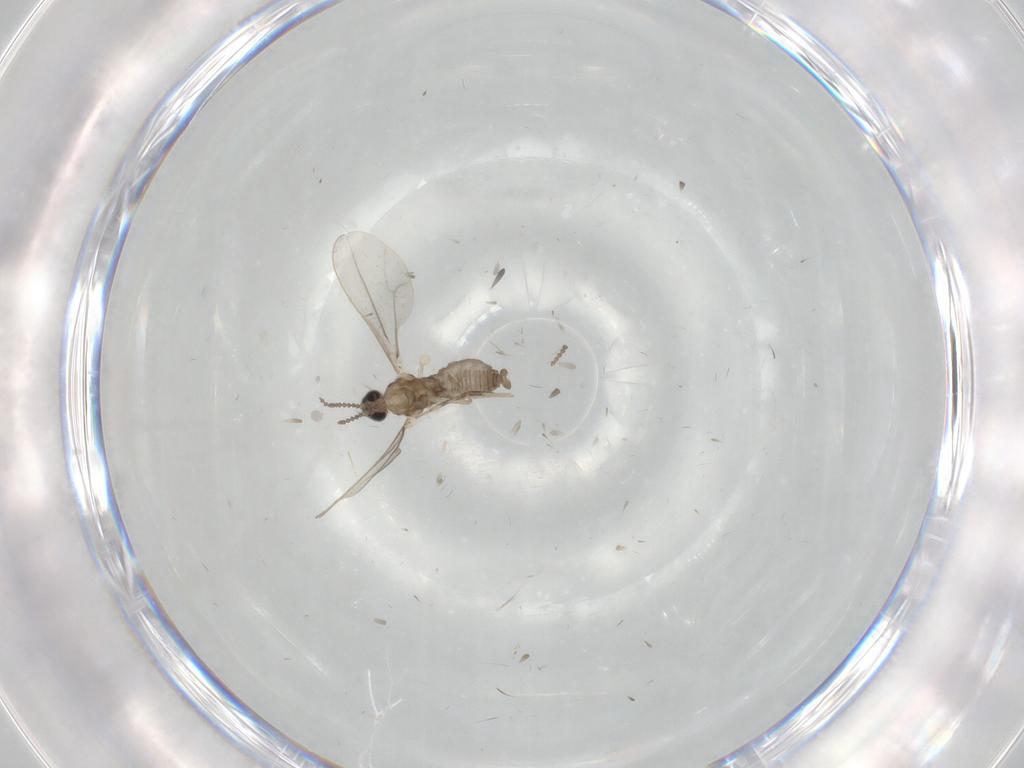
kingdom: Animalia
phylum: Arthropoda
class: Insecta
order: Diptera
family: Cecidomyiidae
